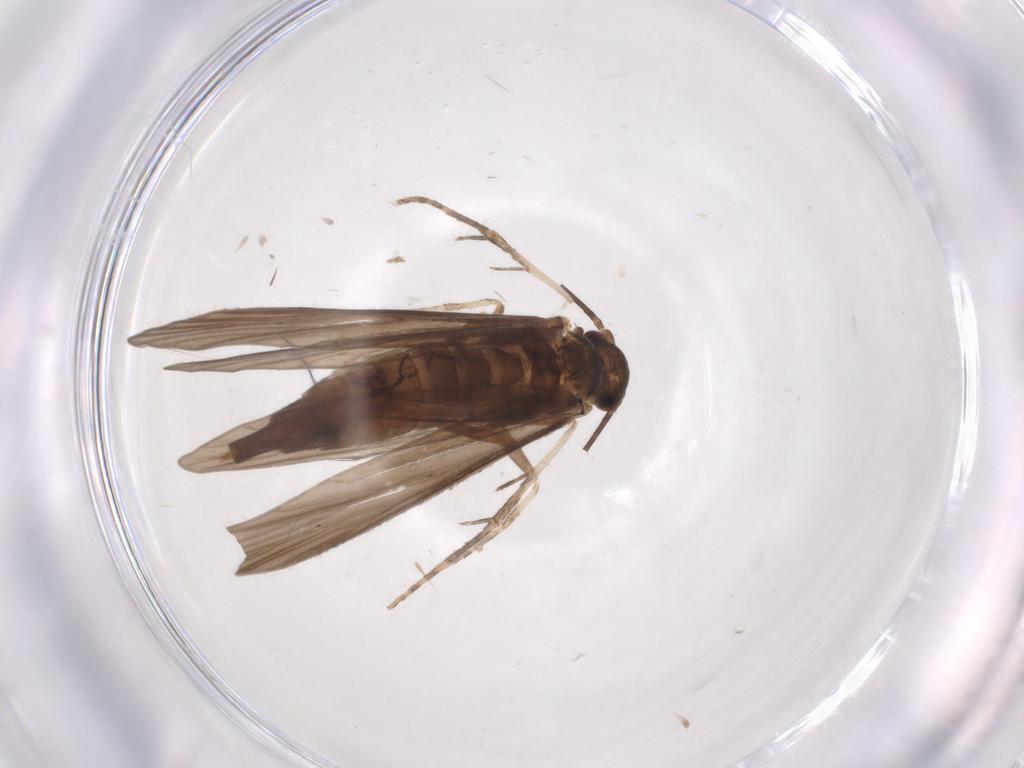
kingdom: Animalia
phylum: Arthropoda
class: Insecta
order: Trichoptera
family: Xiphocentronidae
